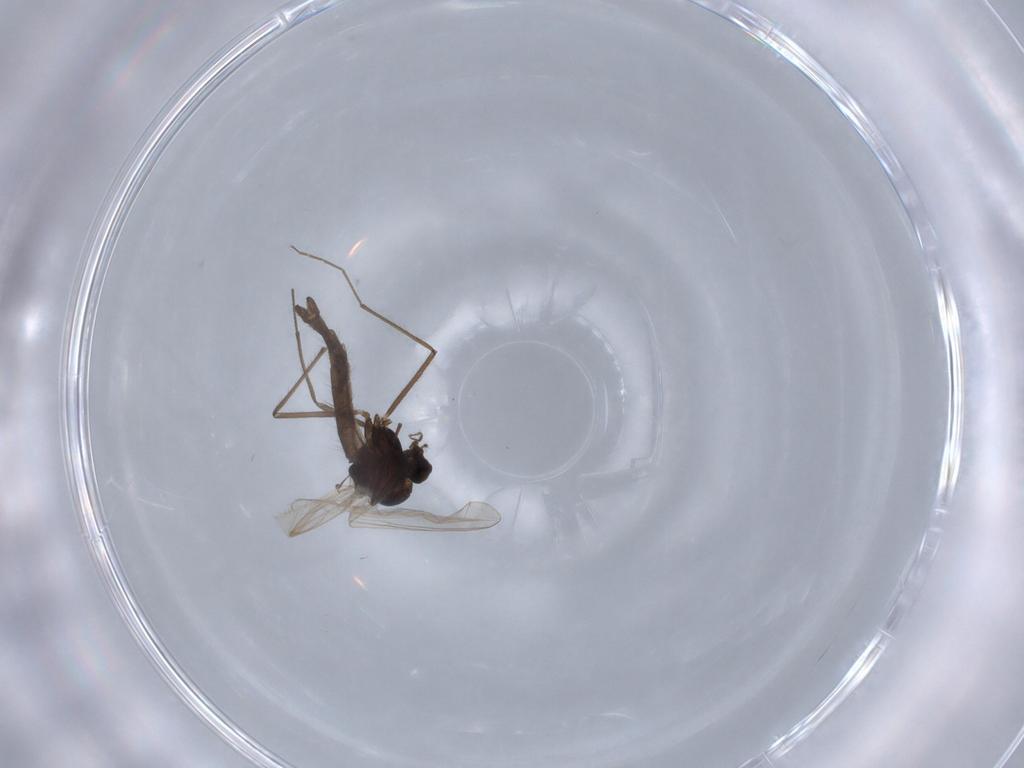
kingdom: Animalia
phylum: Arthropoda
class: Insecta
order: Diptera
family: Chironomidae
